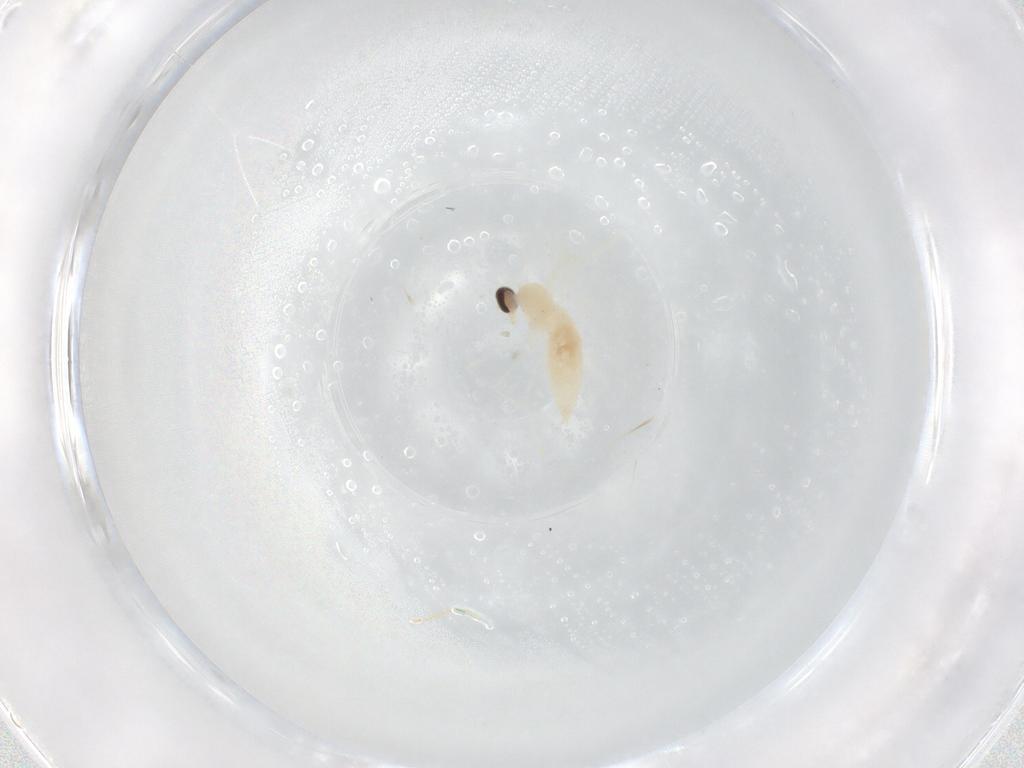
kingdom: Animalia
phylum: Arthropoda
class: Insecta
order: Diptera
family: Cecidomyiidae
